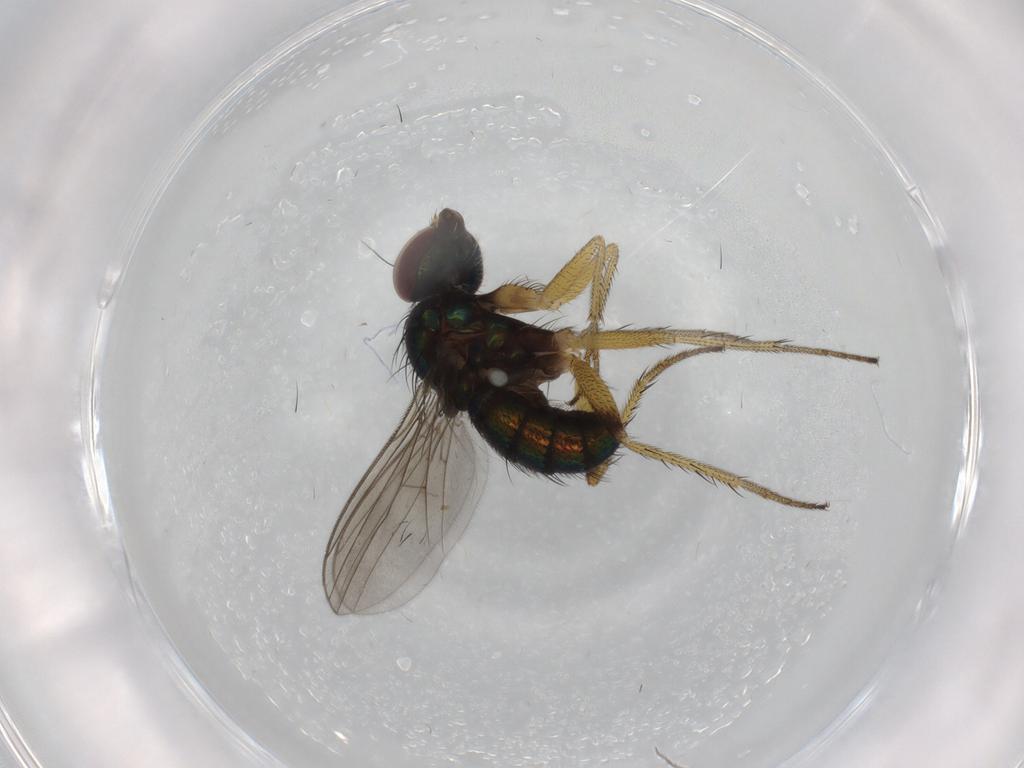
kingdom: Animalia
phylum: Arthropoda
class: Insecta
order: Diptera
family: Dolichopodidae
